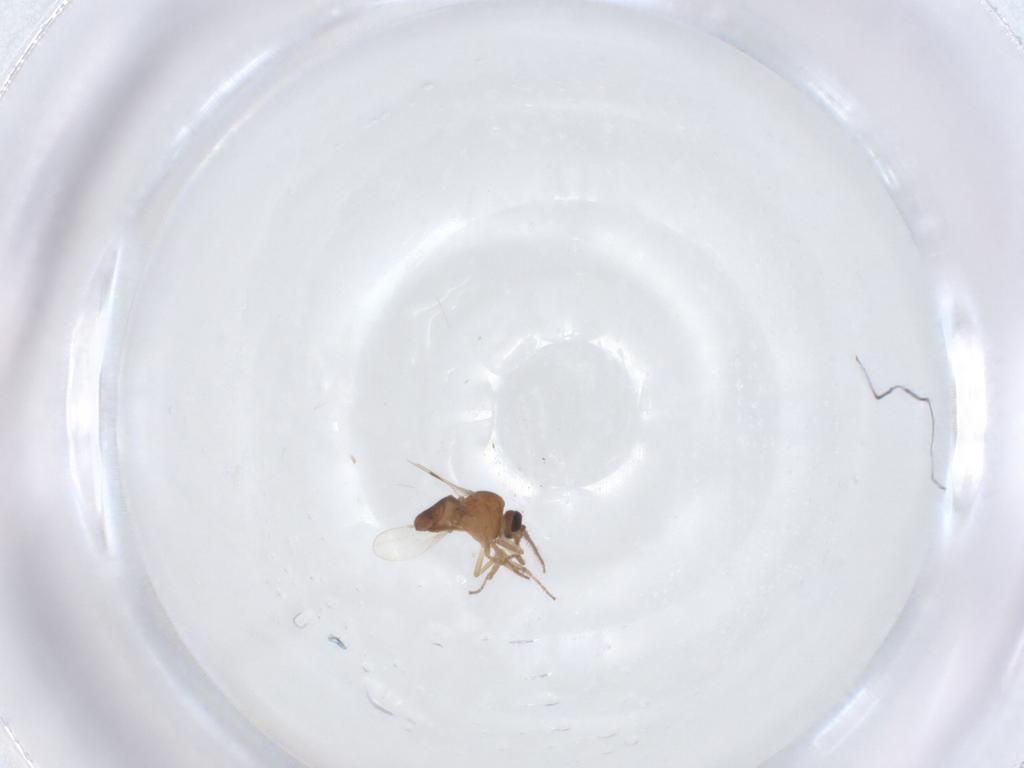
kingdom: Animalia
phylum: Arthropoda
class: Insecta
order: Diptera
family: Ceratopogonidae
